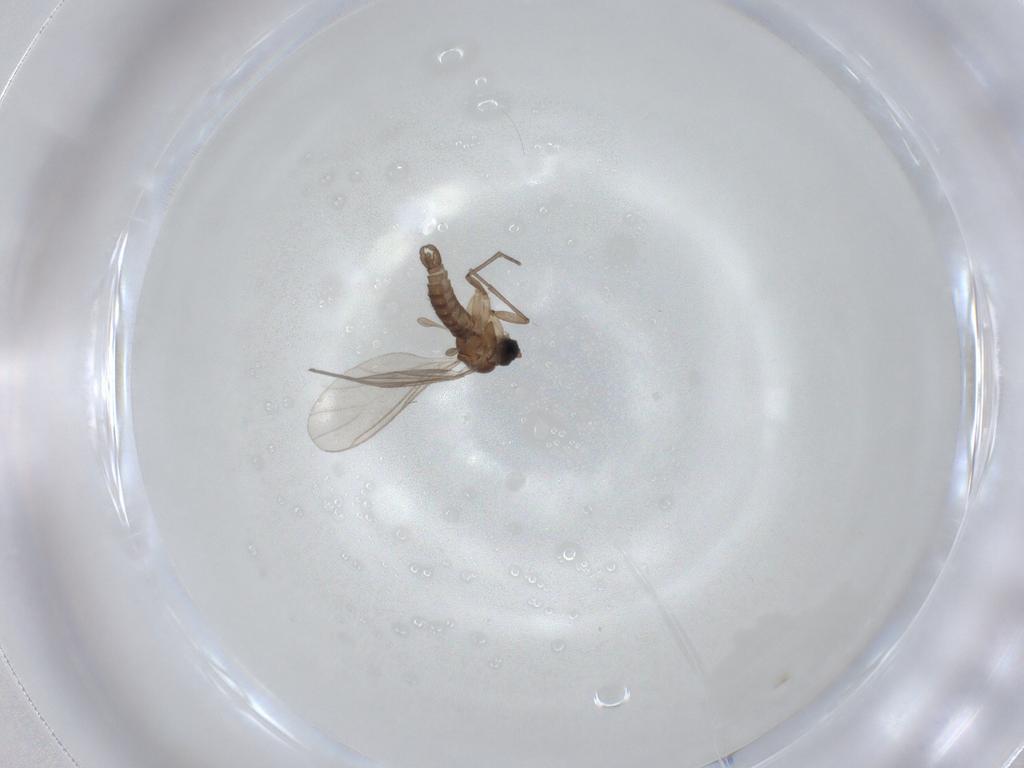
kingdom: Animalia
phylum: Arthropoda
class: Insecta
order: Diptera
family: Sciaridae
